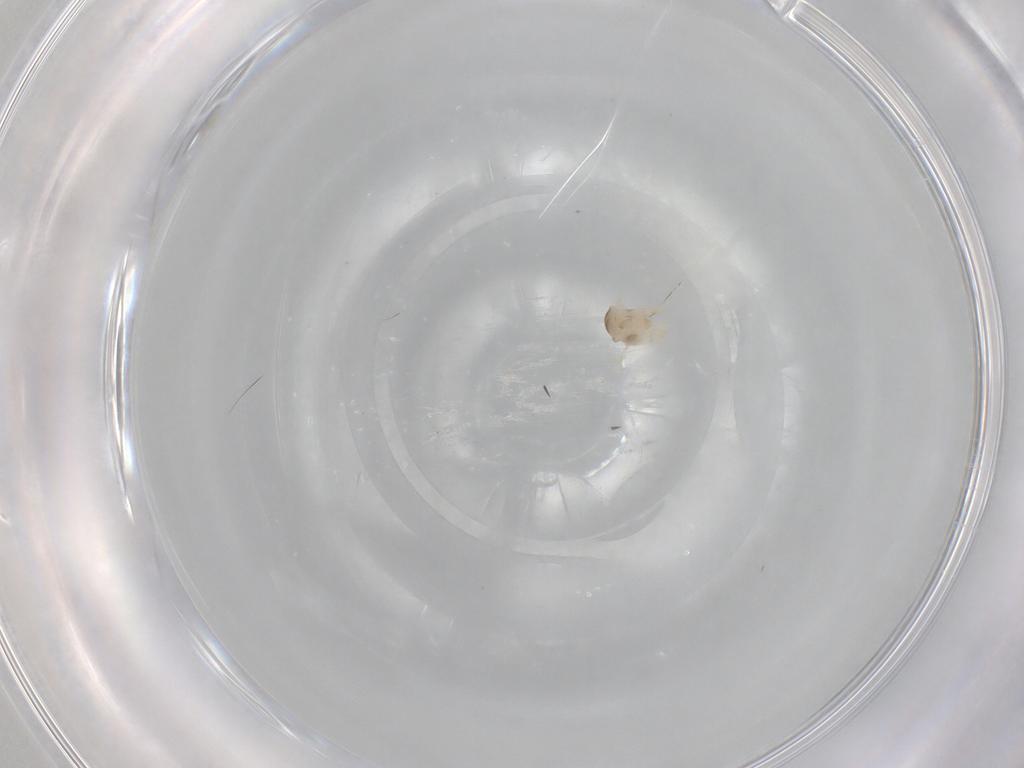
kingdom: Animalia
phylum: Arthropoda
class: Insecta
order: Diptera
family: Cecidomyiidae
